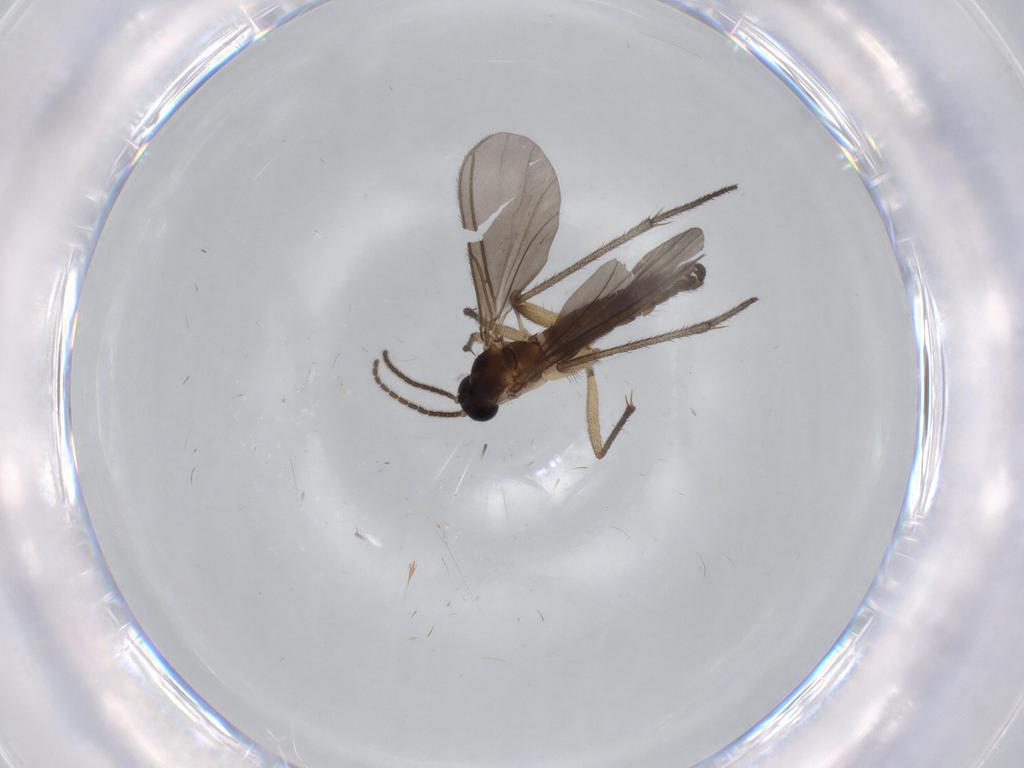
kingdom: Animalia
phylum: Arthropoda
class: Insecta
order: Diptera
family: Sciaridae
